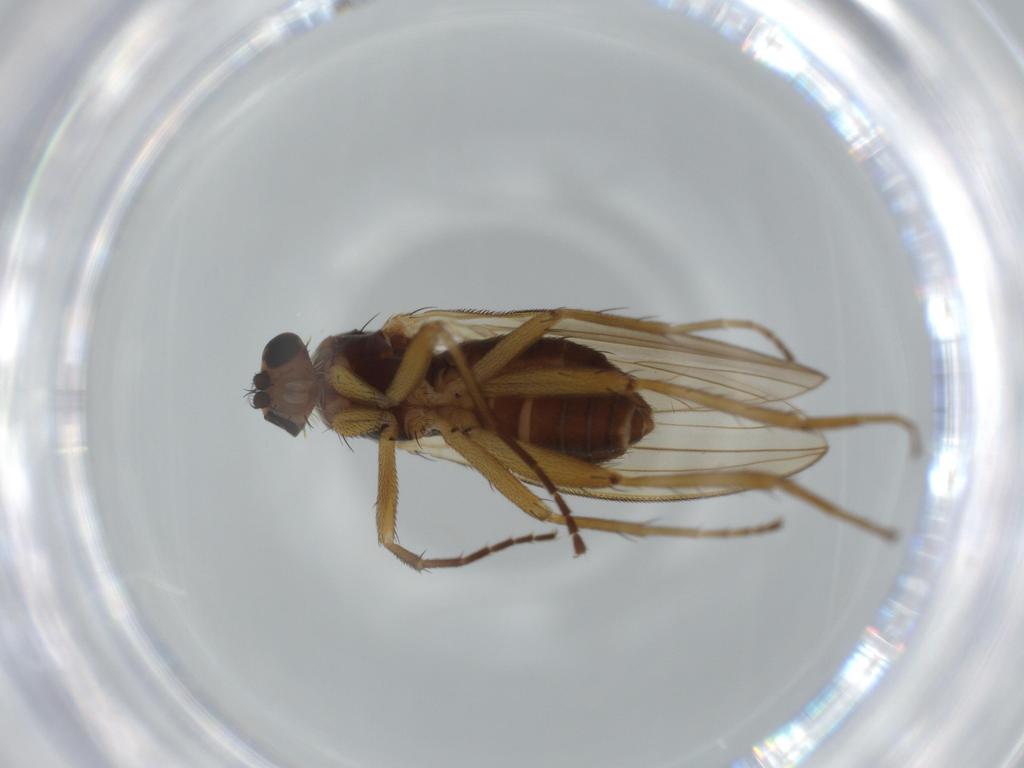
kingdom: Animalia
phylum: Arthropoda
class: Insecta
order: Diptera
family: Lonchopteridae
